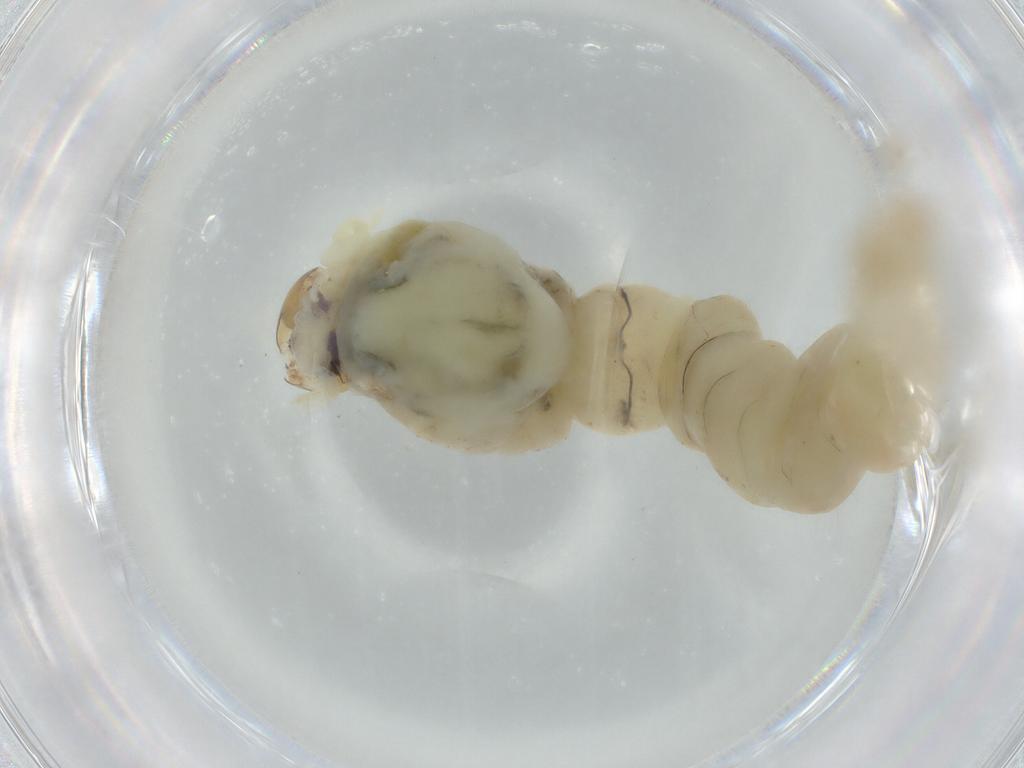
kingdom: Animalia
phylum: Arthropoda
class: Insecta
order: Diptera
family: Chironomidae
